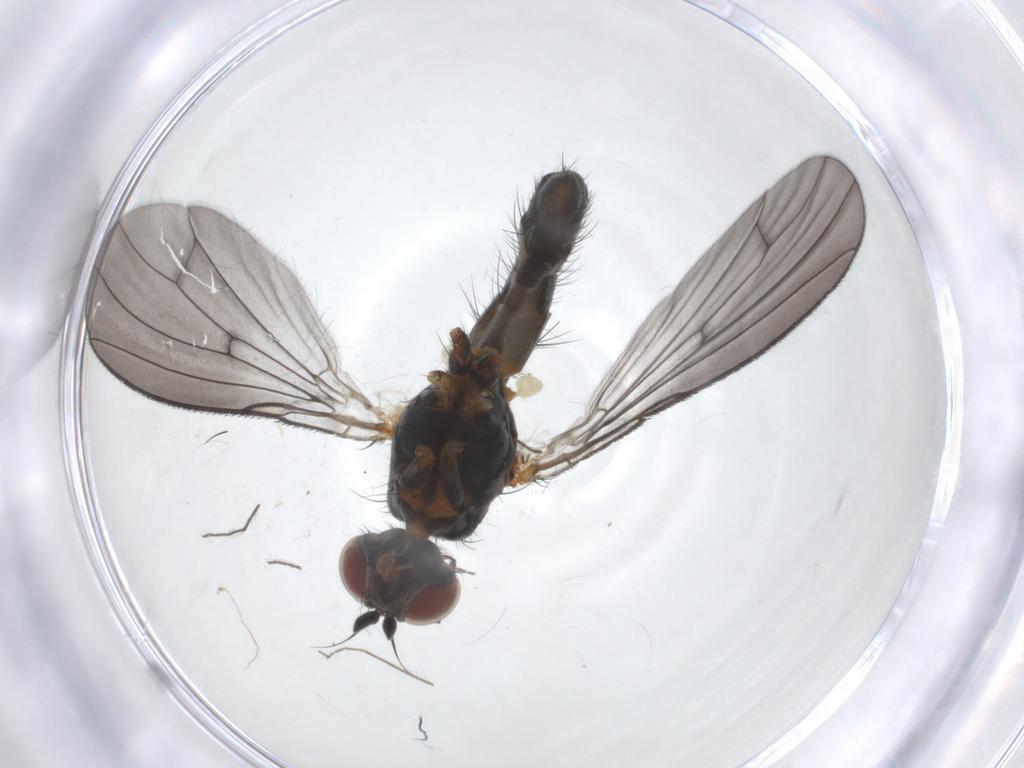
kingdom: Animalia
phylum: Arthropoda
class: Insecta
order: Diptera
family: Anthomyiidae
